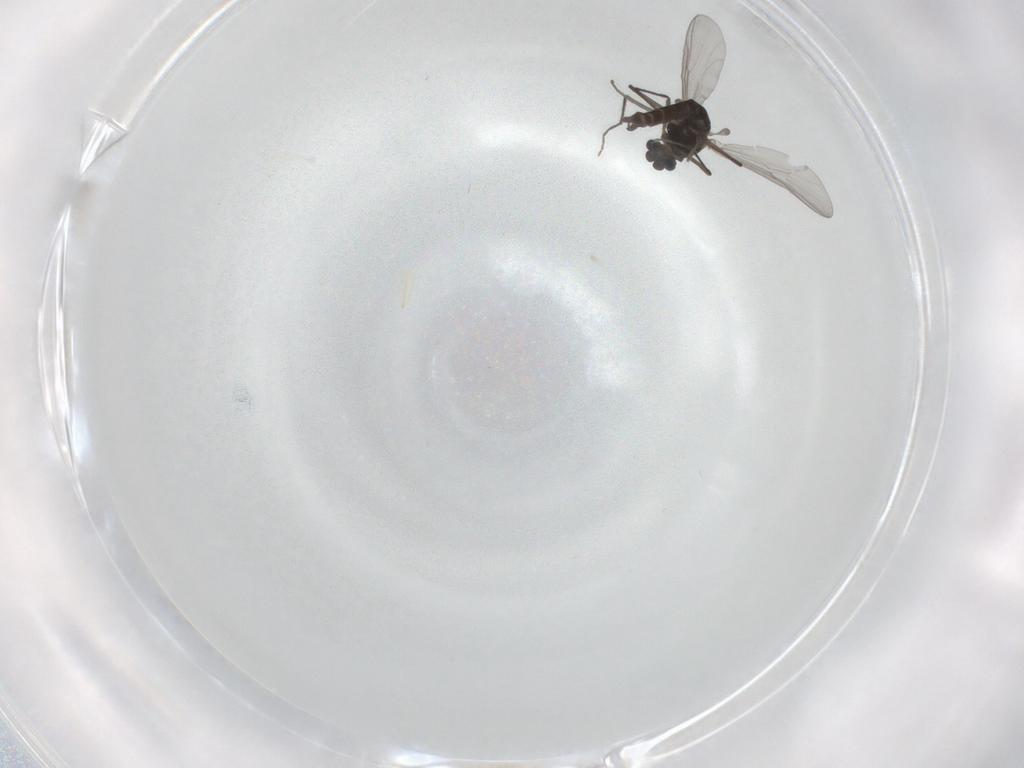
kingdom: Animalia
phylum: Arthropoda
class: Insecta
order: Diptera
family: Chironomidae
